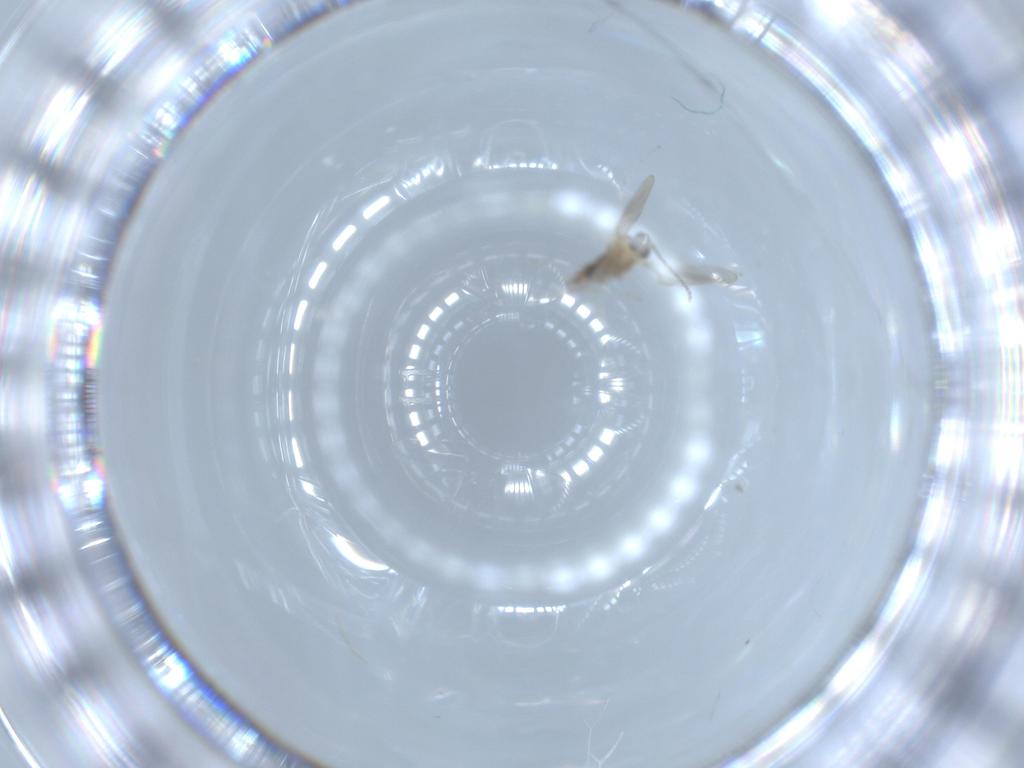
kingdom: Animalia
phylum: Arthropoda
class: Insecta
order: Diptera
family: Cecidomyiidae
